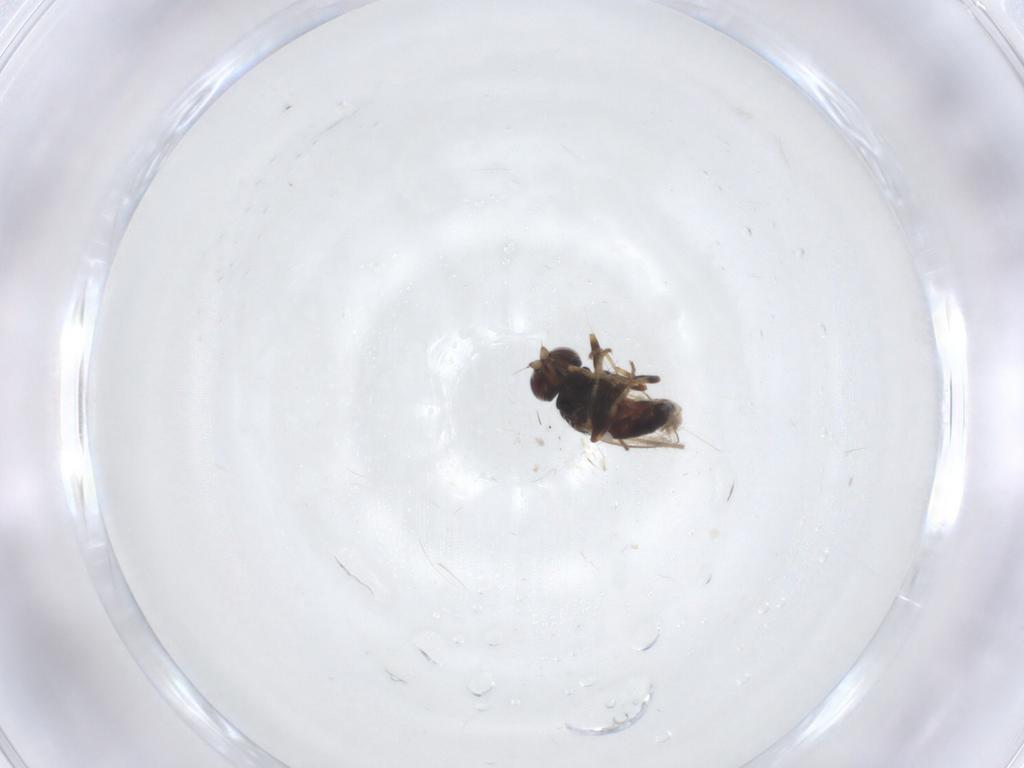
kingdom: Animalia
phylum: Arthropoda
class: Insecta
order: Diptera
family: Chloropidae
